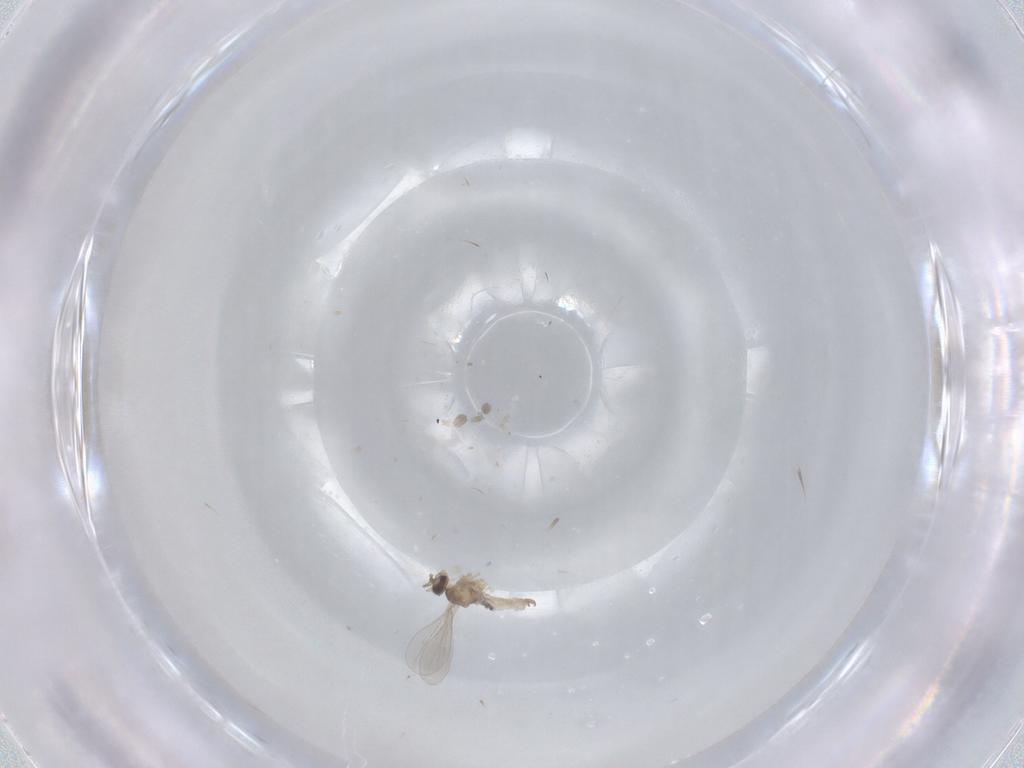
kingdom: Animalia
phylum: Arthropoda
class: Insecta
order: Diptera
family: Cecidomyiidae
